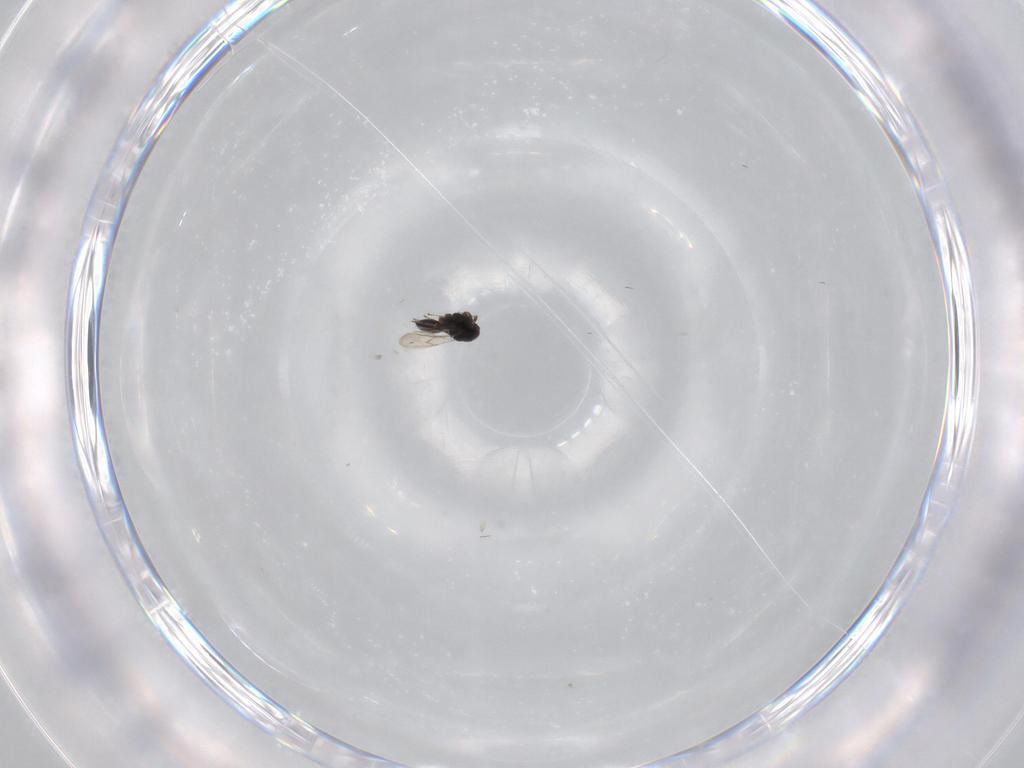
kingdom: Animalia
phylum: Arthropoda
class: Insecta
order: Hymenoptera
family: Scelionidae
